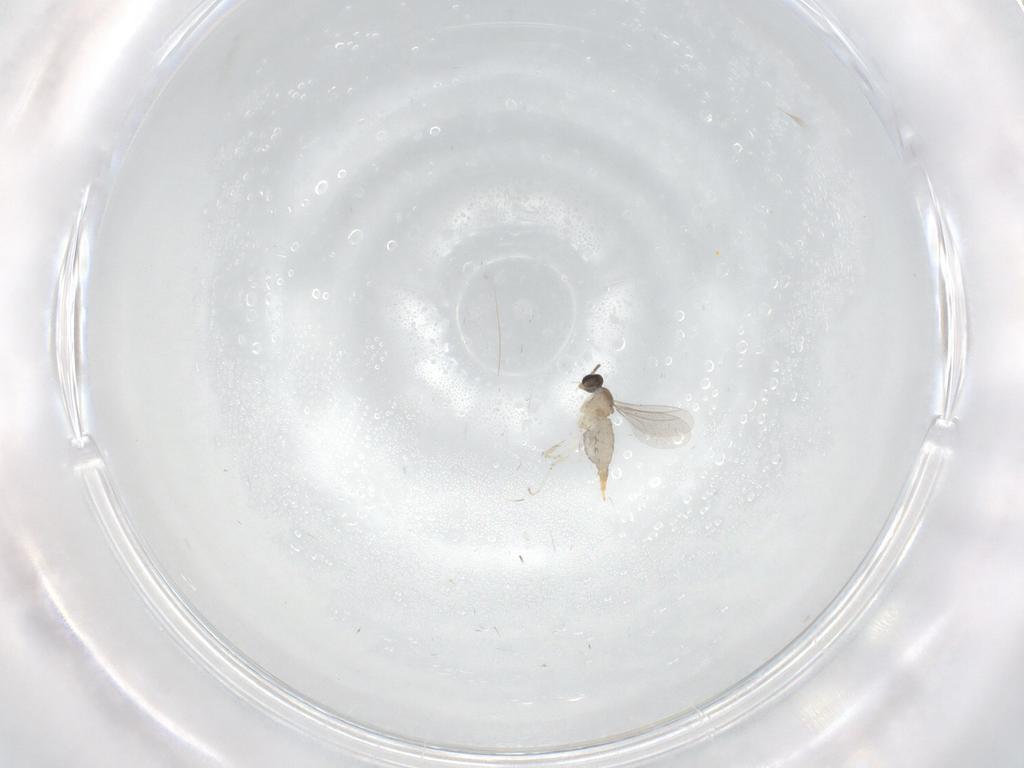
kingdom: Animalia
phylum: Arthropoda
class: Insecta
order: Diptera
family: Cecidomyiidae
